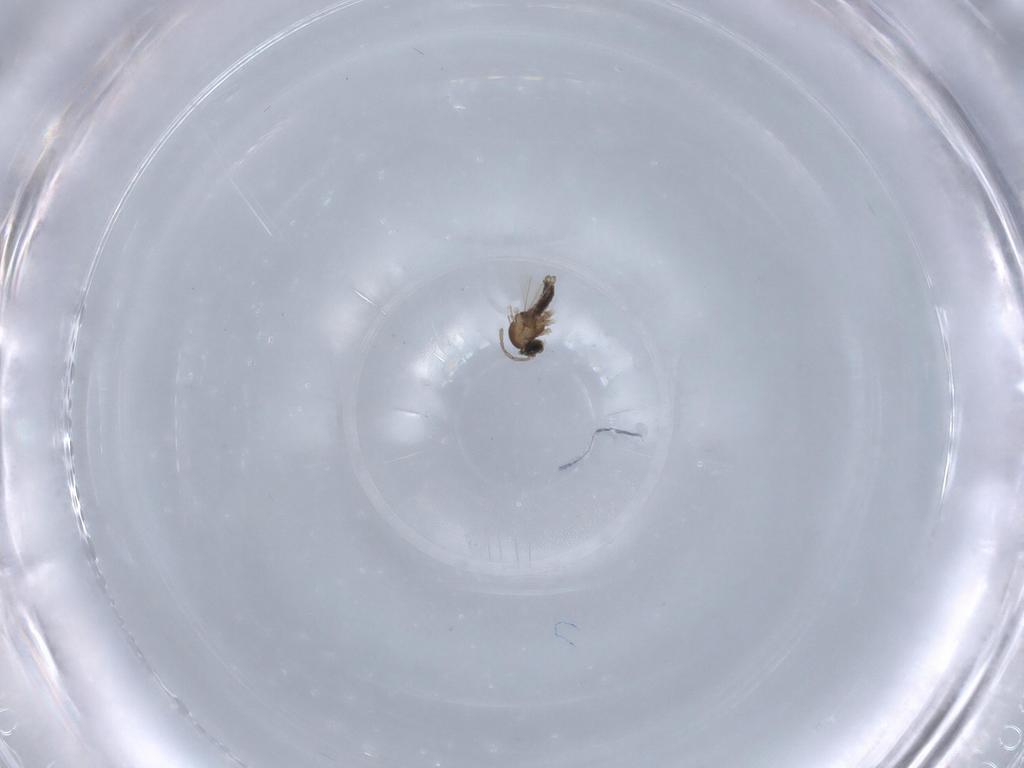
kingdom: Animalia
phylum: Arthropoda
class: Insecta
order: Diptera
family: Cecidomyiidae
